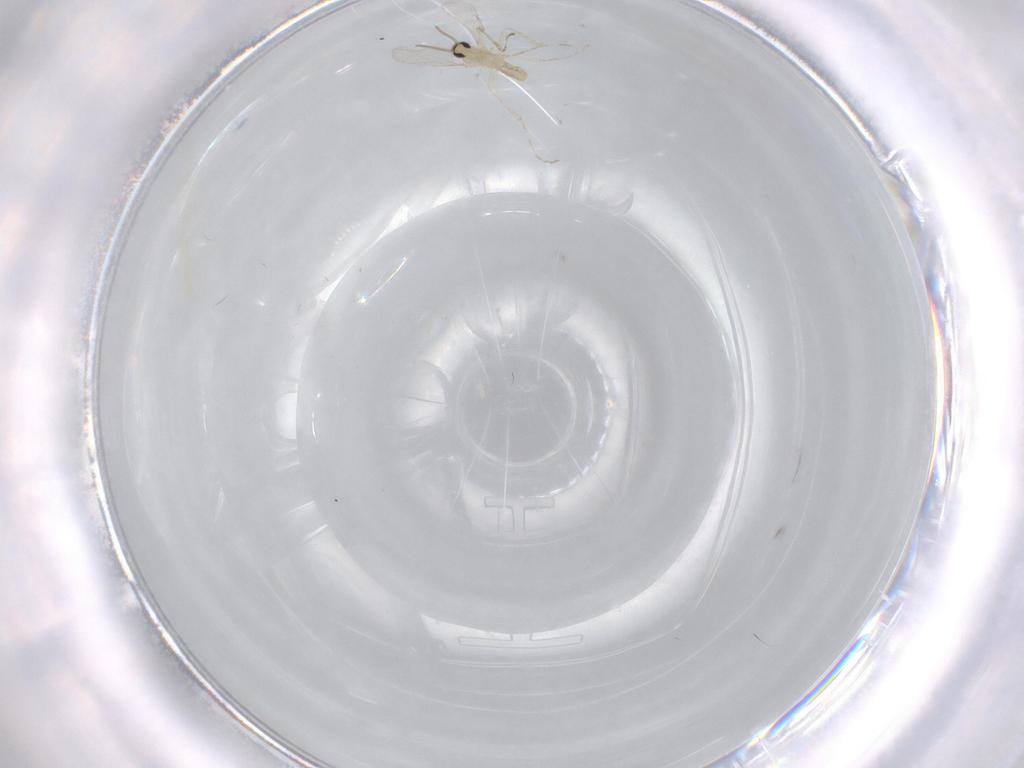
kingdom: Animalia
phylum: Arthropoda
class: Insecta
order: Diptera
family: Cecidomyiidae
